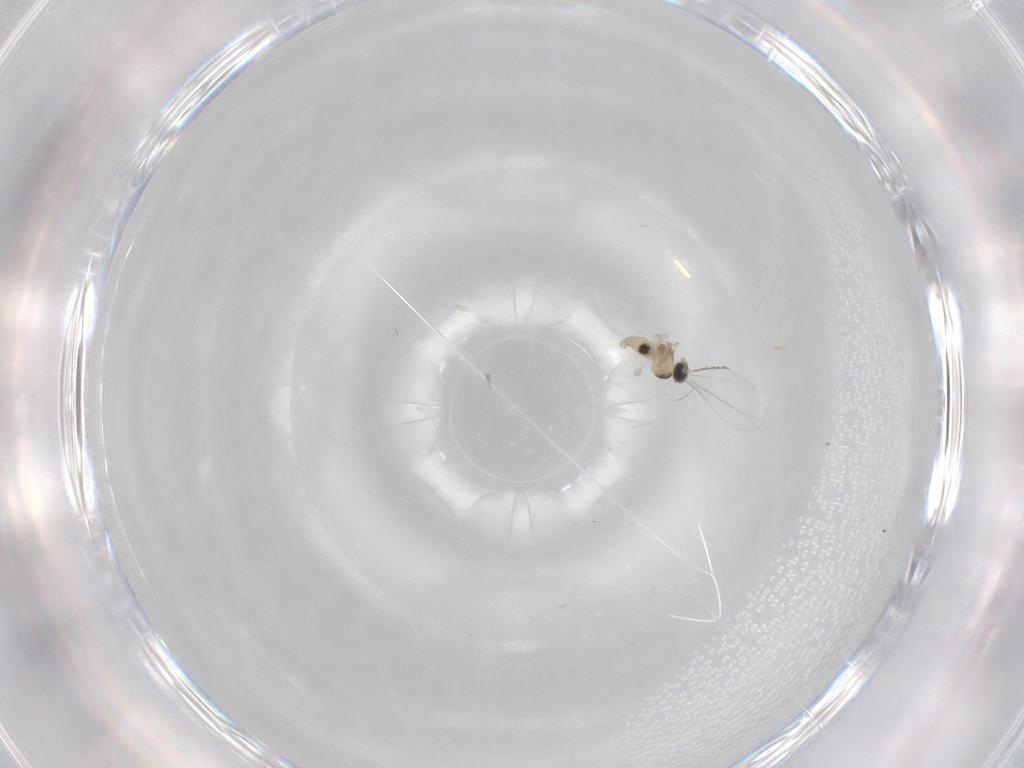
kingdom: Animalia
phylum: Arthropoda
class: Insecta
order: Diptera
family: Cecidomyiidae
